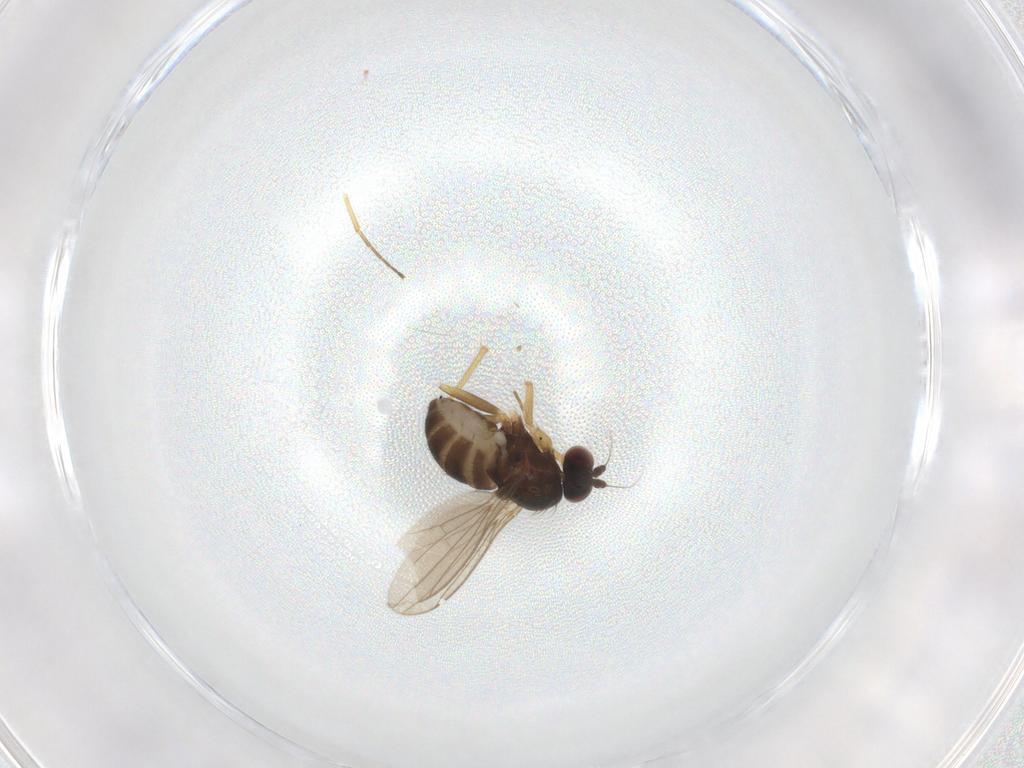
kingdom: Animalia
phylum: Arthropoda
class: Insecta
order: Diptera
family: Dolichopodidae
